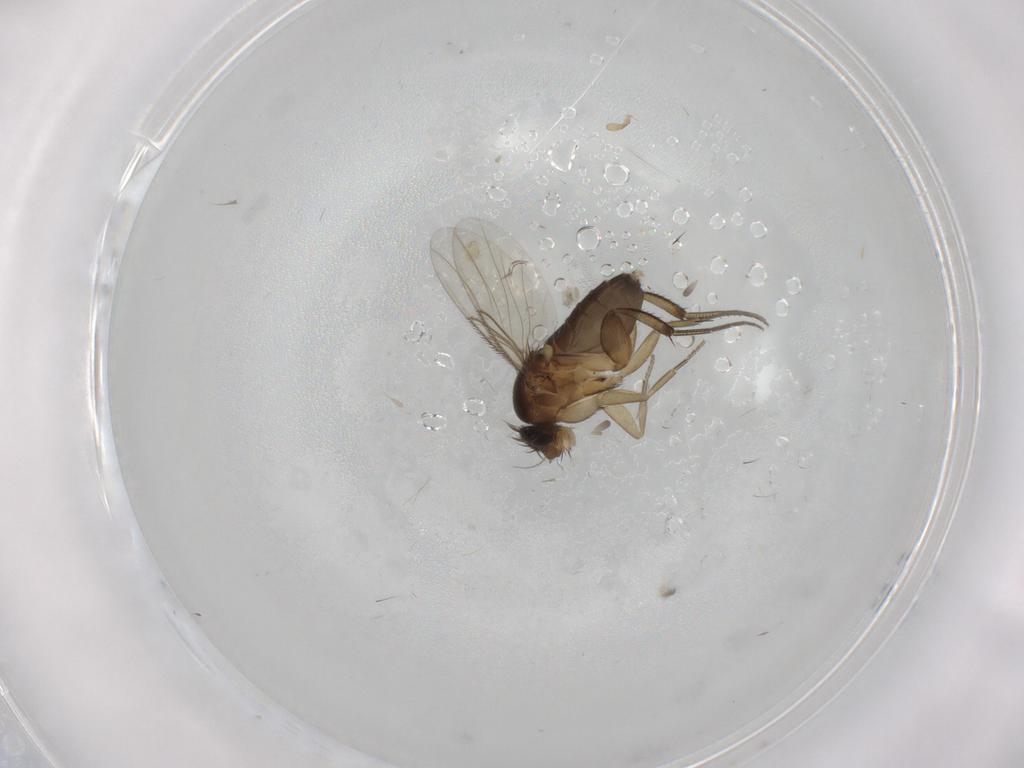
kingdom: Animalia
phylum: Arthropoda
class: Insecta
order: Diptera
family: Phoridae
